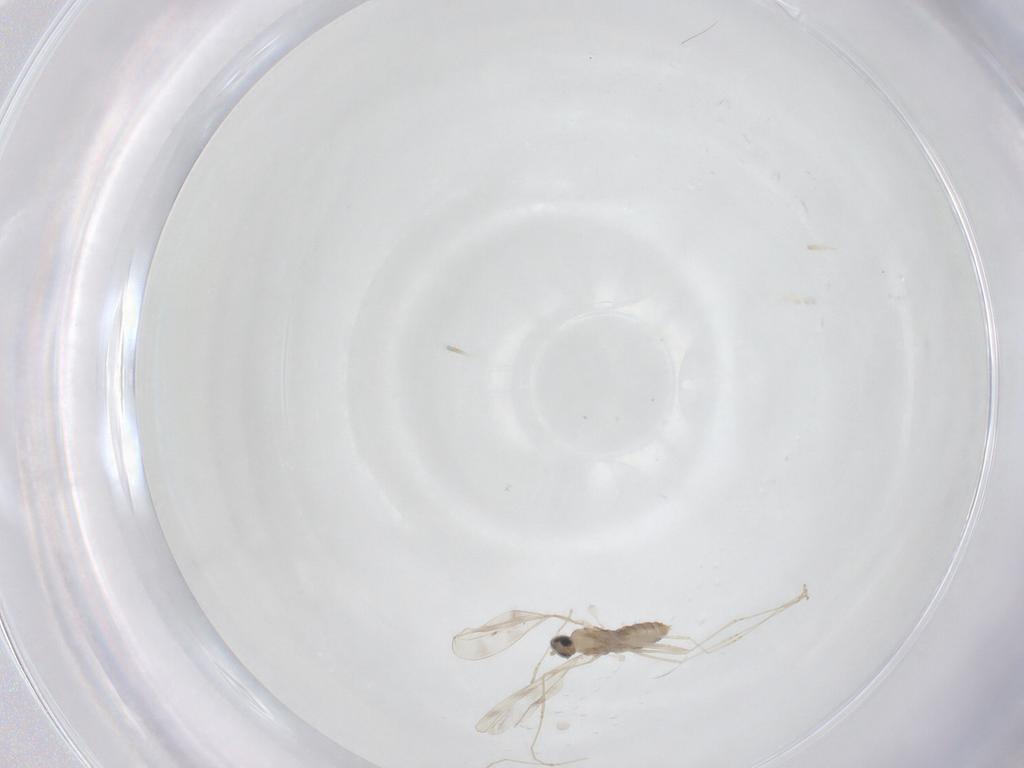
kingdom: Animalia
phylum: Arthropoda
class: Insecta
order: Diptera
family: Cecidomyiidae
